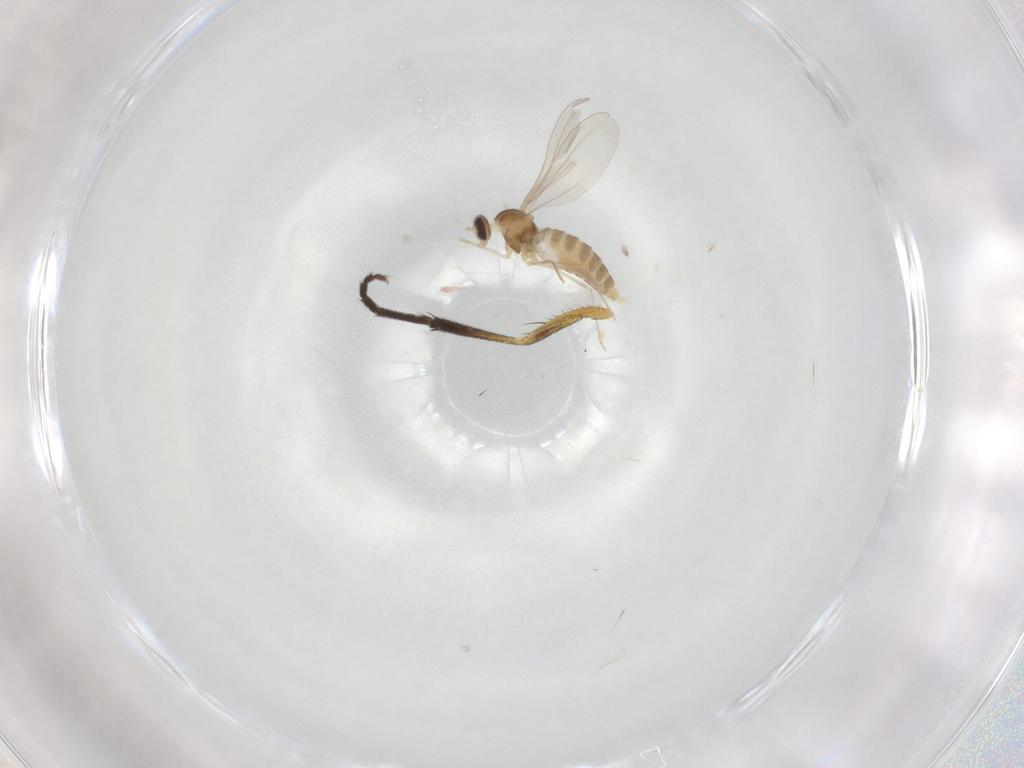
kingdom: Animalia
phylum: Arthropoda
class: Insecta
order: Diptera
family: Cecidomyiidae
